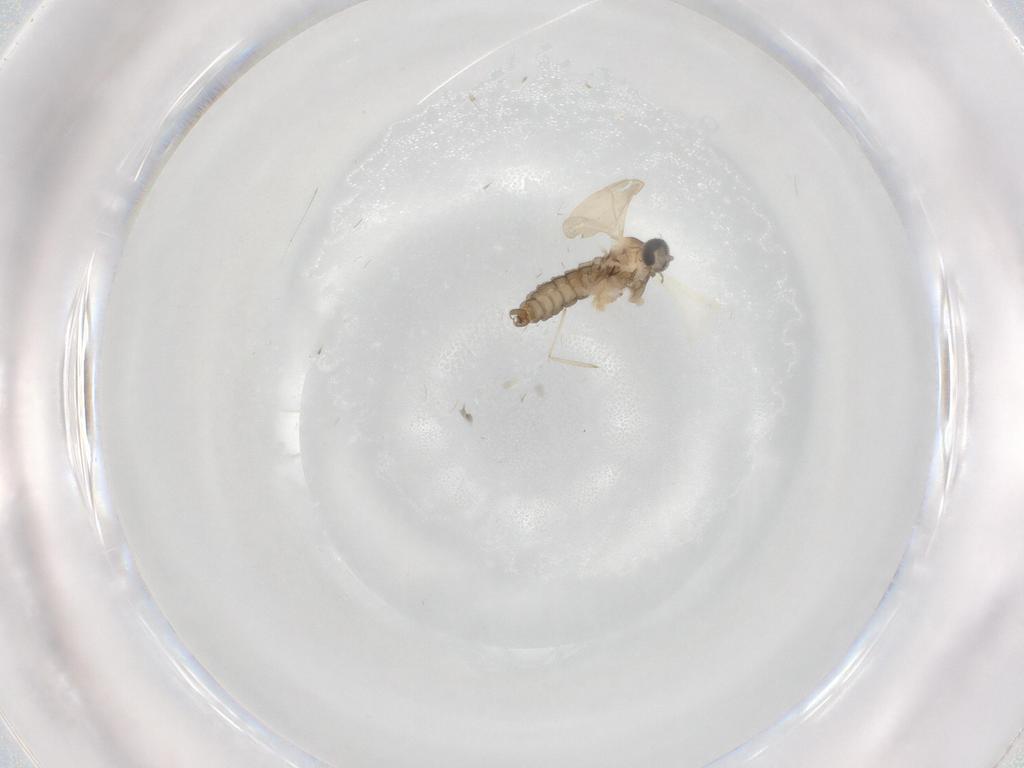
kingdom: Animalia
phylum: Arthropoda
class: Insecta
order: Diptera
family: Cecidomyiidae
